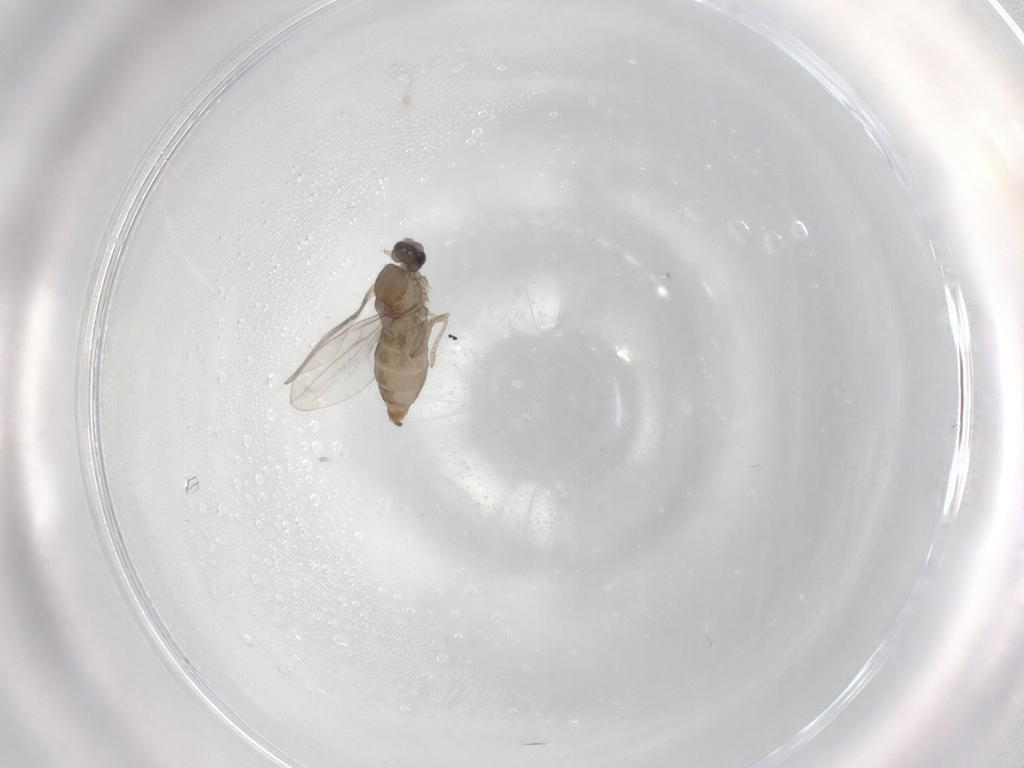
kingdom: Animalia
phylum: Arthropoda
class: Insecta
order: Diptera
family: Cecidomyiidae
